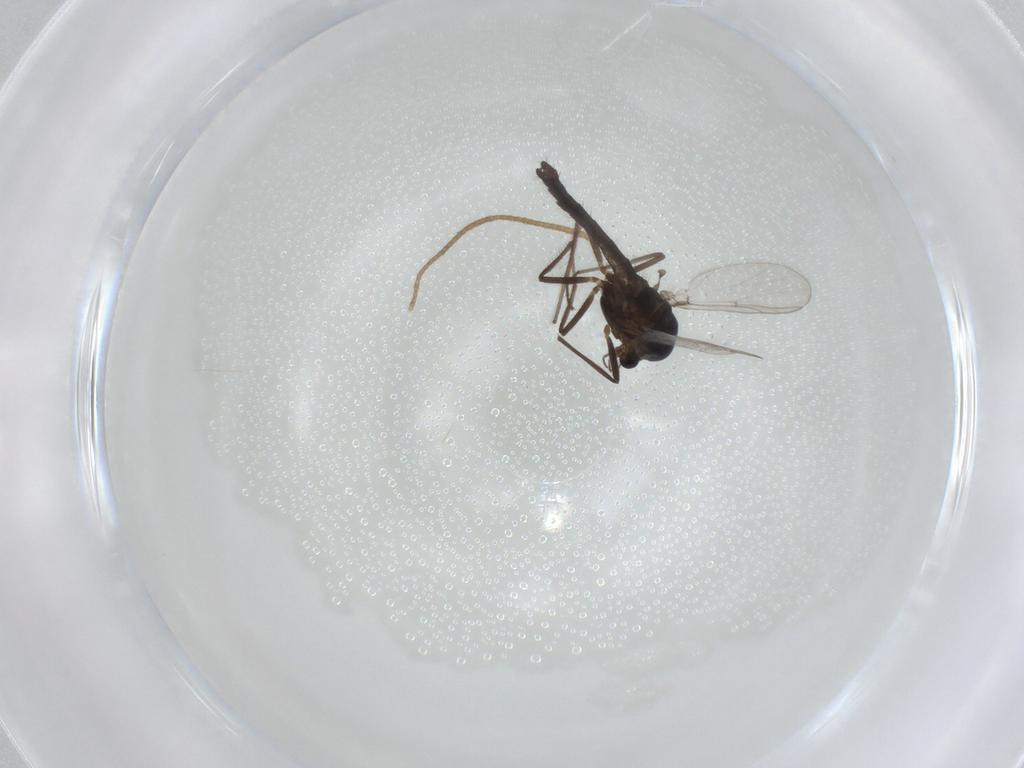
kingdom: Animalia
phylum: Arthropoda
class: Insecta
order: Diptera
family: Chironomidae
